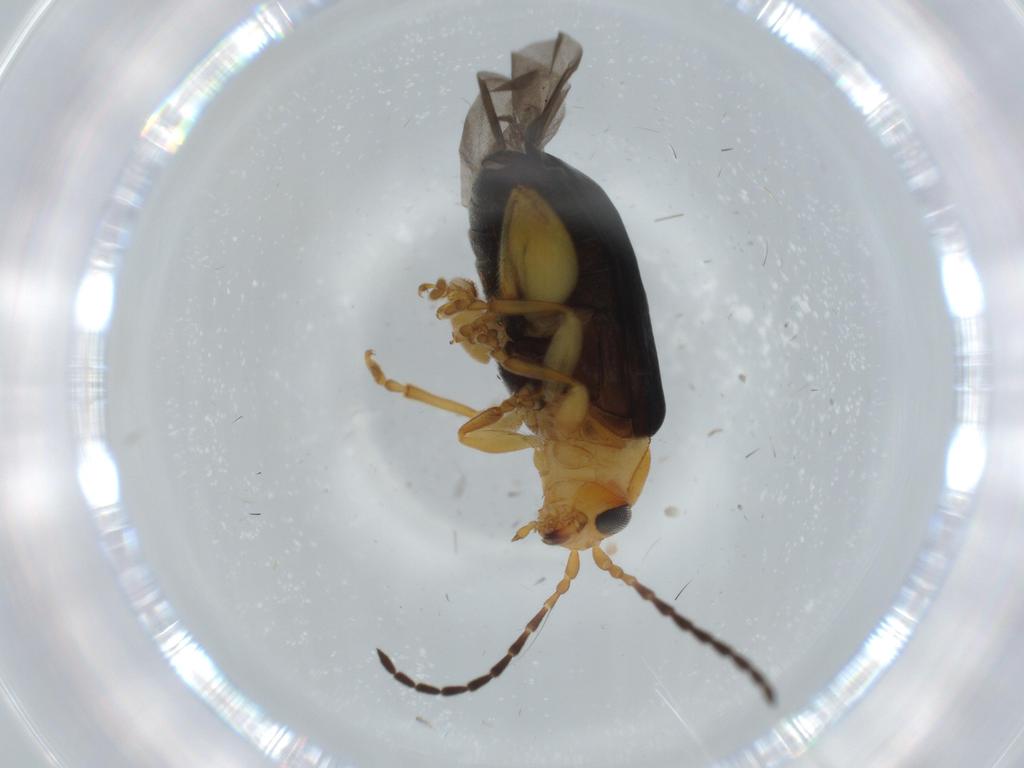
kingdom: Animalia
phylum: Arthropoda
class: Insecta
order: Coleoptera
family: Chrysomelidae
